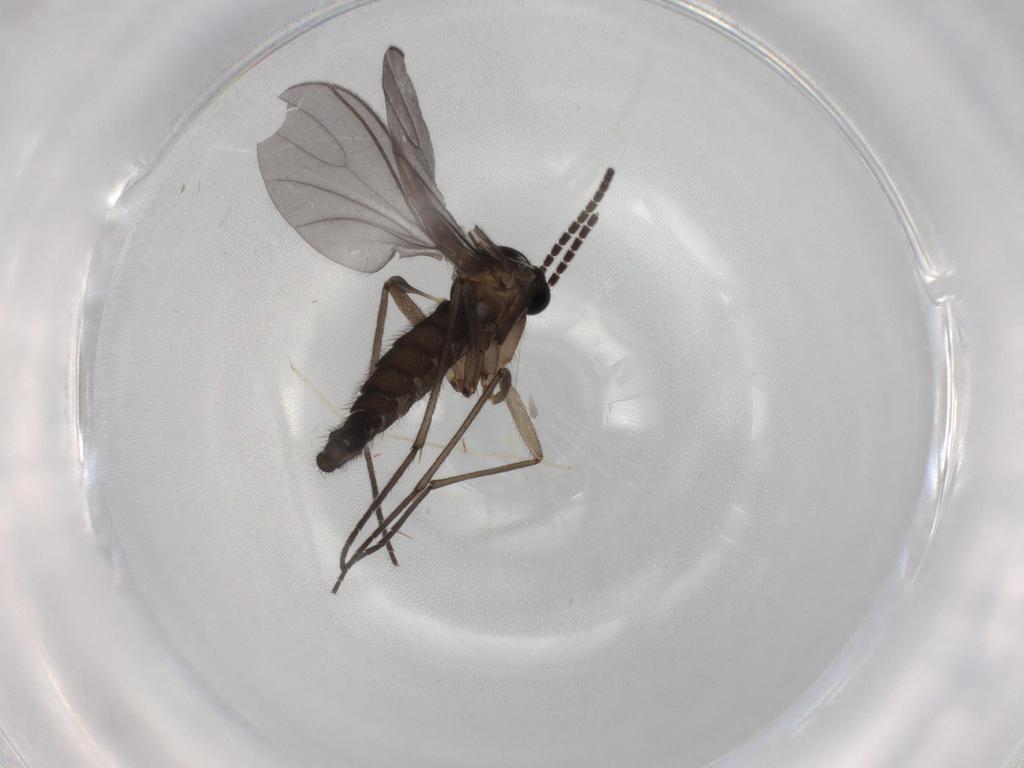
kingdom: Animalia
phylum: Arthropoda
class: Insecta
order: Diptera
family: Sciaridae
